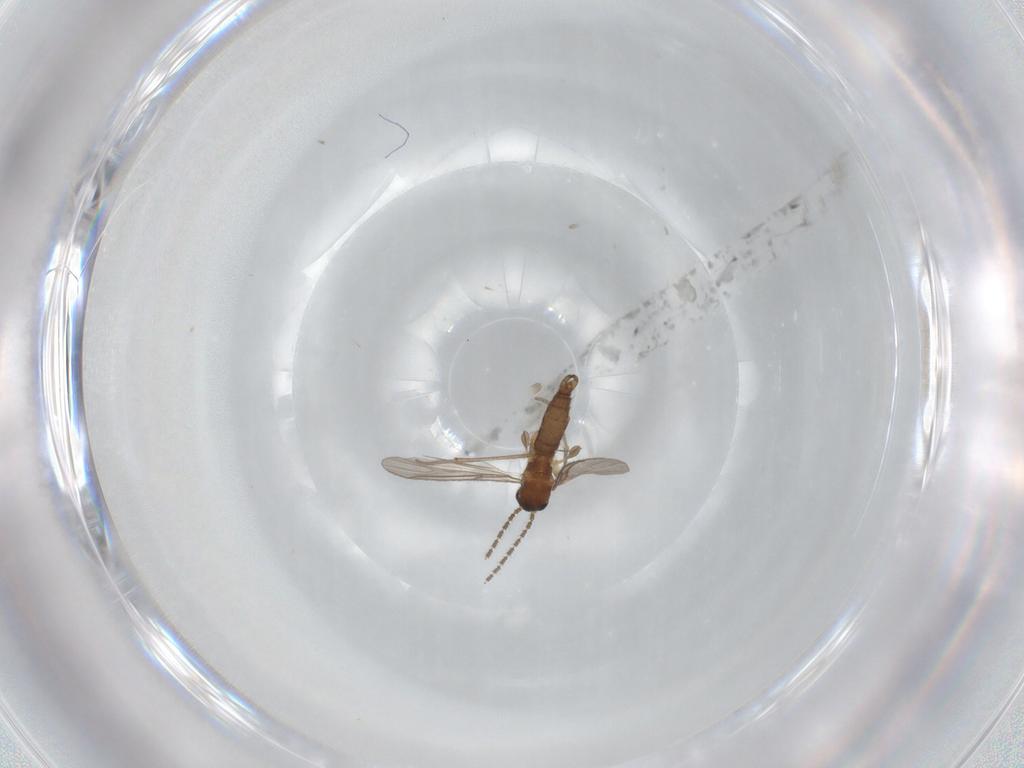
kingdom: Animalia
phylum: Arthropoda
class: Insecta
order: Diptera
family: Sciaridae
